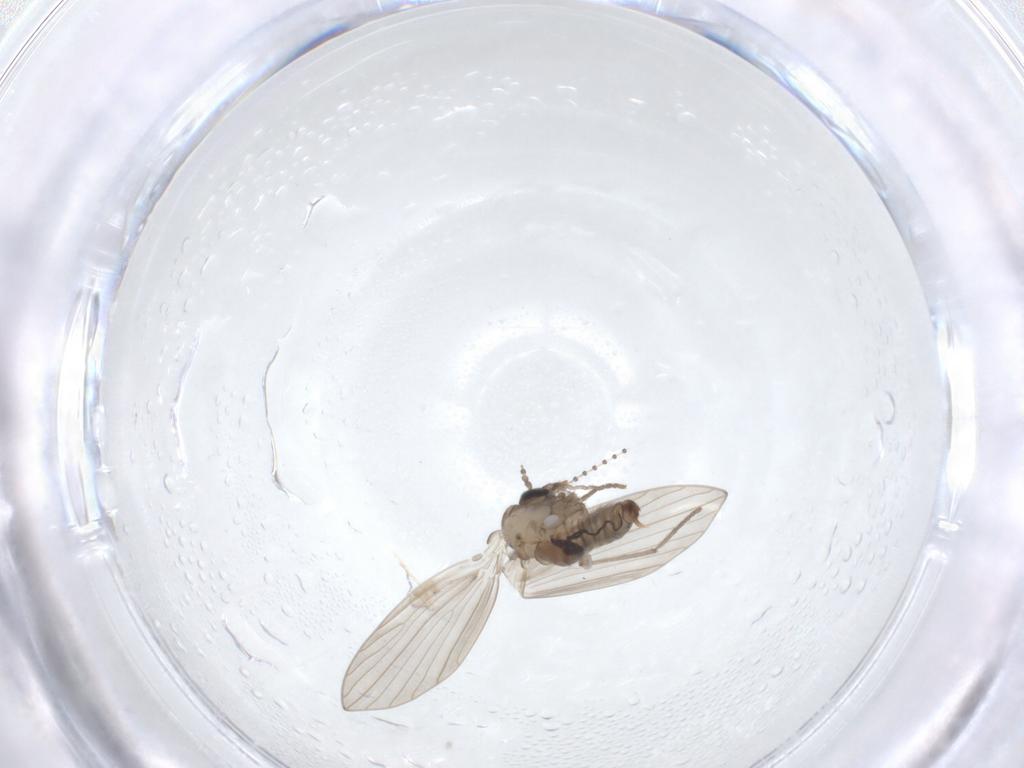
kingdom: Animalia
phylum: Arthropoda
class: Insecta
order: Diptera
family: Psychodidae
